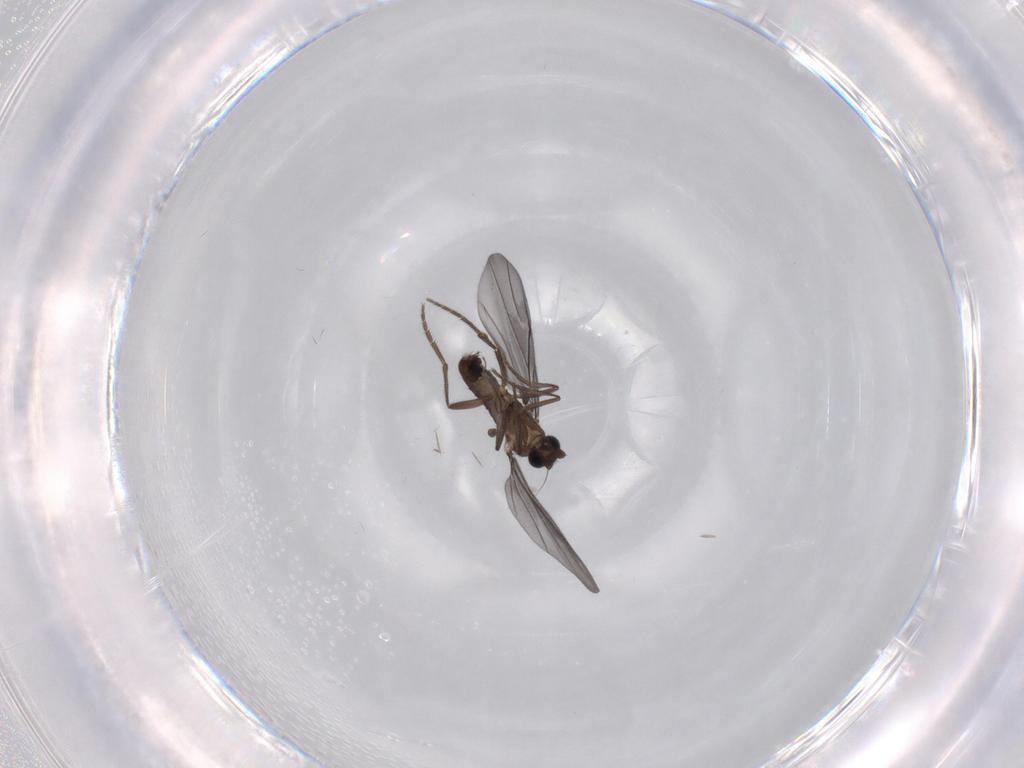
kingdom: Animalia
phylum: Arthropoda
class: Insecta
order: Diptera
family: Phoridae
